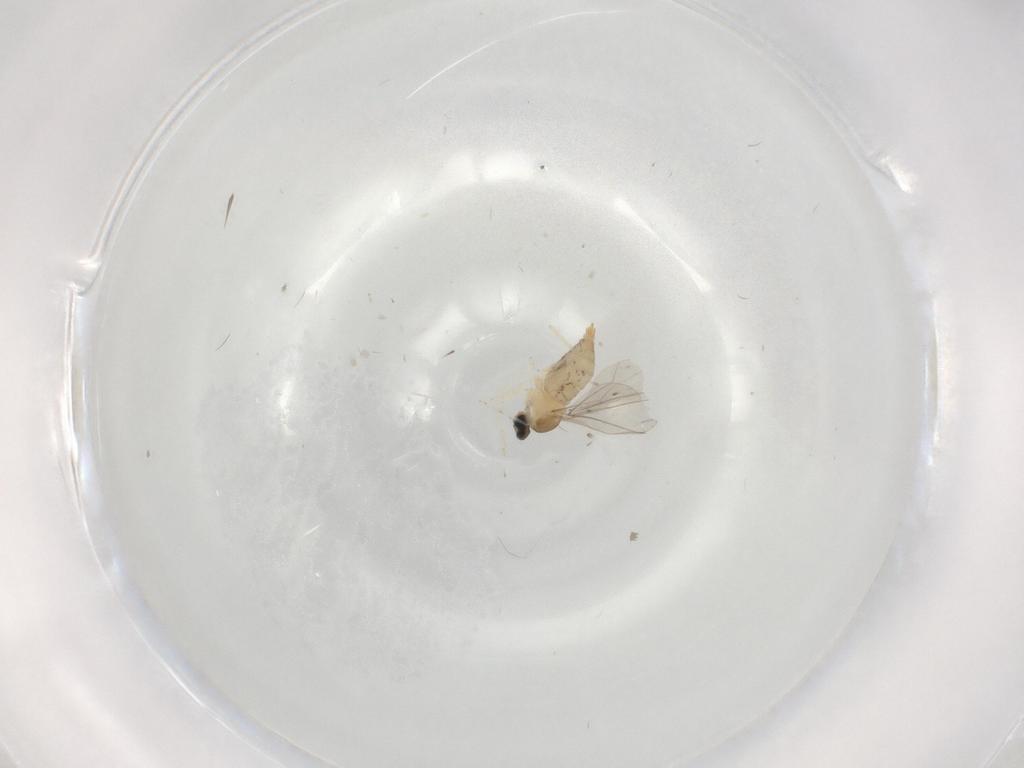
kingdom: Animalia
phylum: Arthropoda
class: Insecta
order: Diptera
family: Cecidomyiidae
